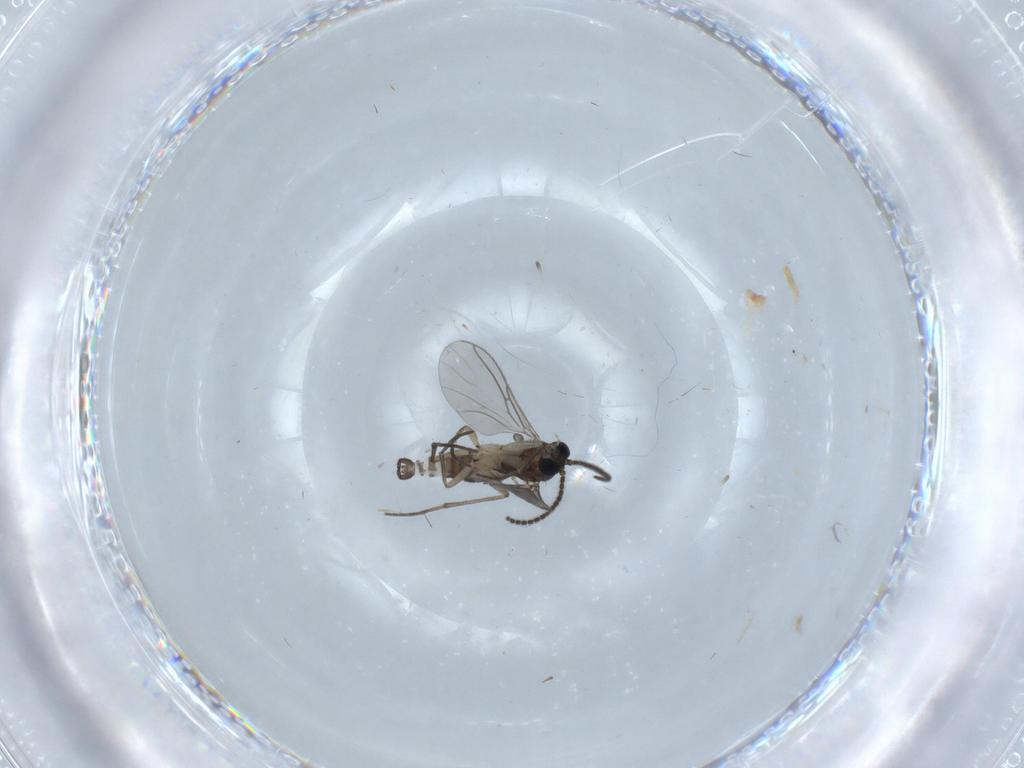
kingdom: Animalia
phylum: Arthropoda
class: Insecta
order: Diptera
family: Sciaridae
